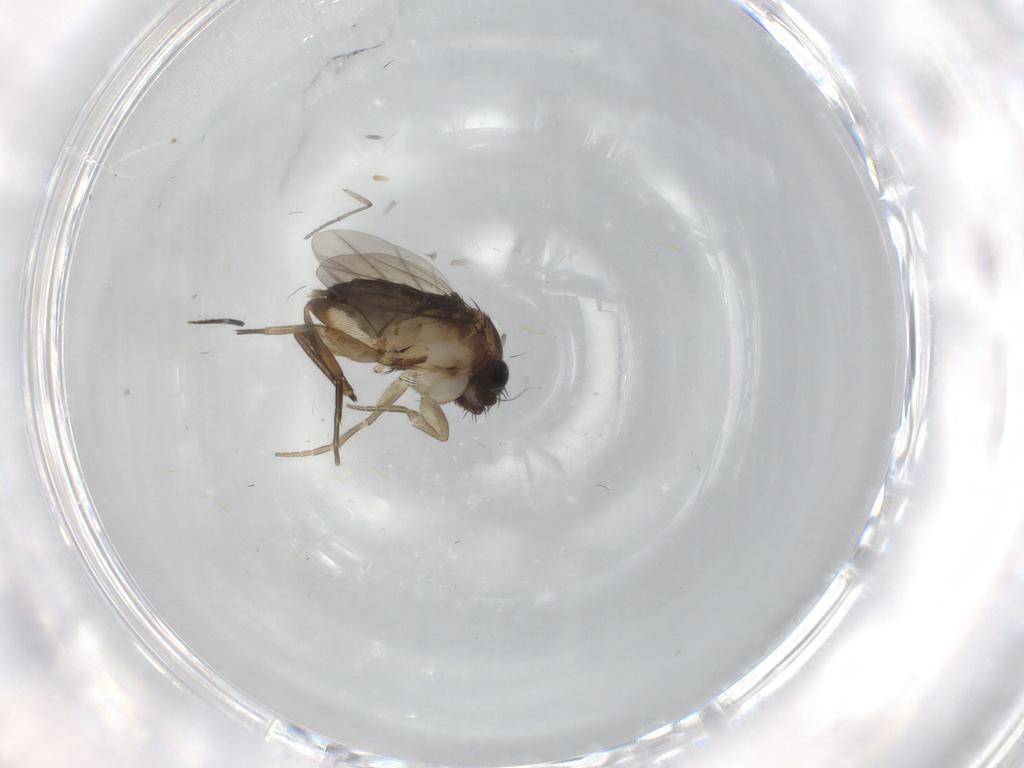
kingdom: Animalia
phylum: Arthropoda
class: Insecta
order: Diptera
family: Phoridae
